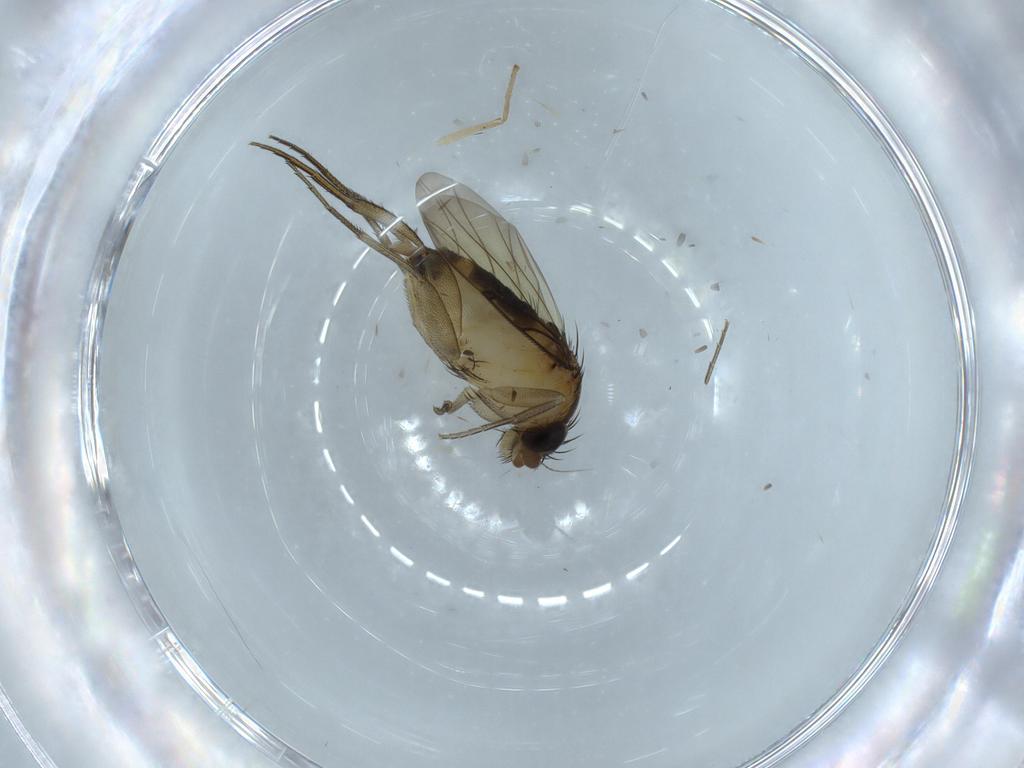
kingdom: Animalia
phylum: Arthropoda
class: Insecta
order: Diptera
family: Chironomidae
